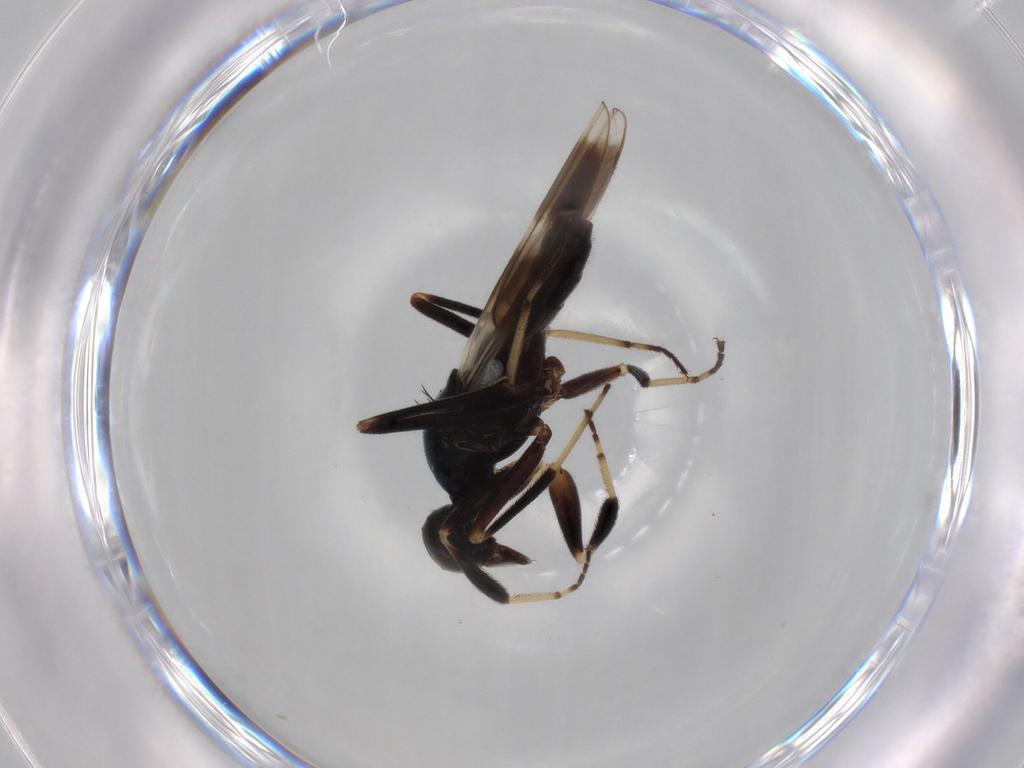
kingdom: Animalia
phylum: Arthropoda
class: Insecta
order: Diptera
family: Hybotidae
